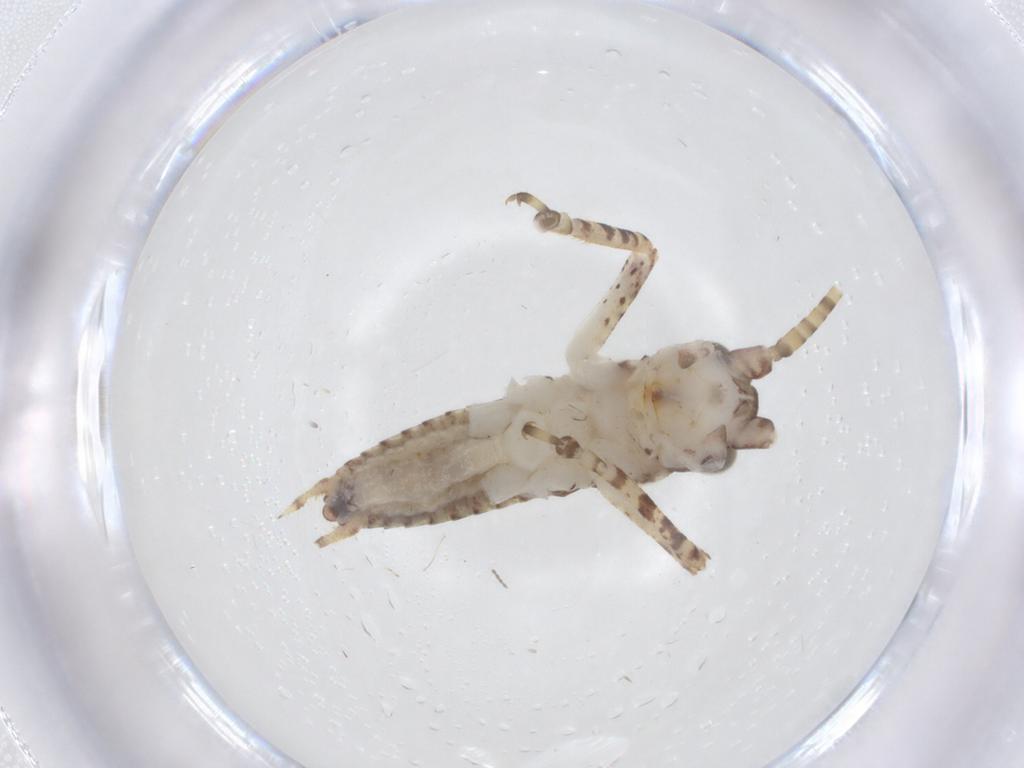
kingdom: Animalia
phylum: Arthropoda
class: Insecta
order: Orthoptera
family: Gryllidae
